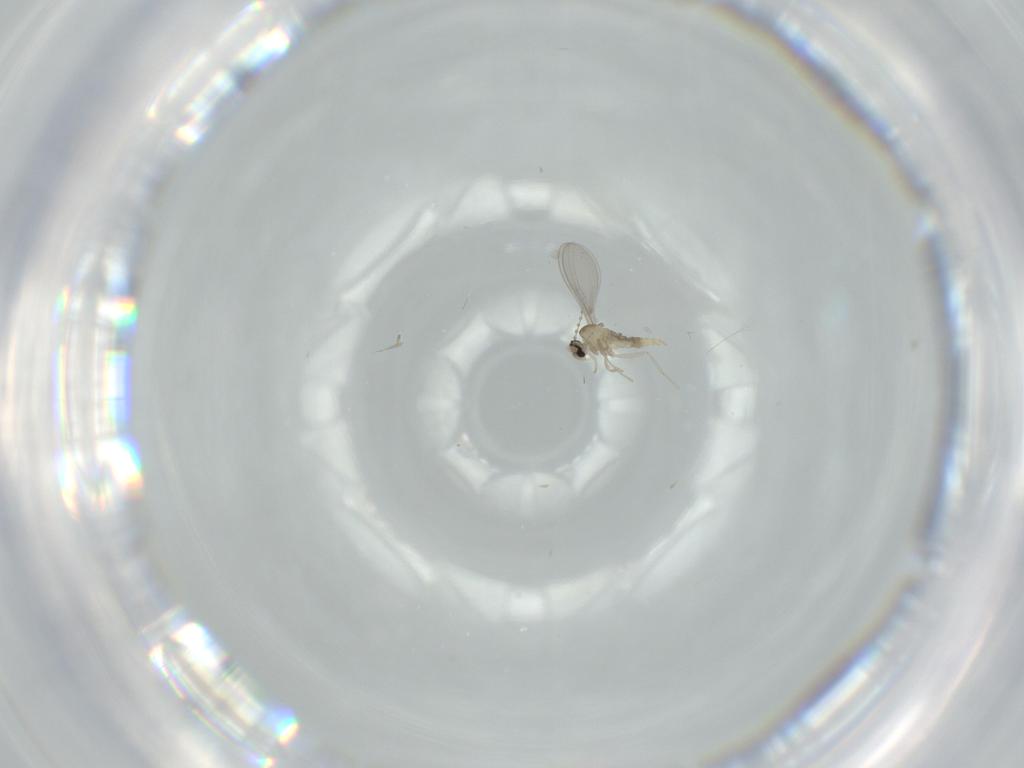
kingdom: Animalia
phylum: Arthropoda
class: Insecta
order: Diptera
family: Cecidomyiidae
